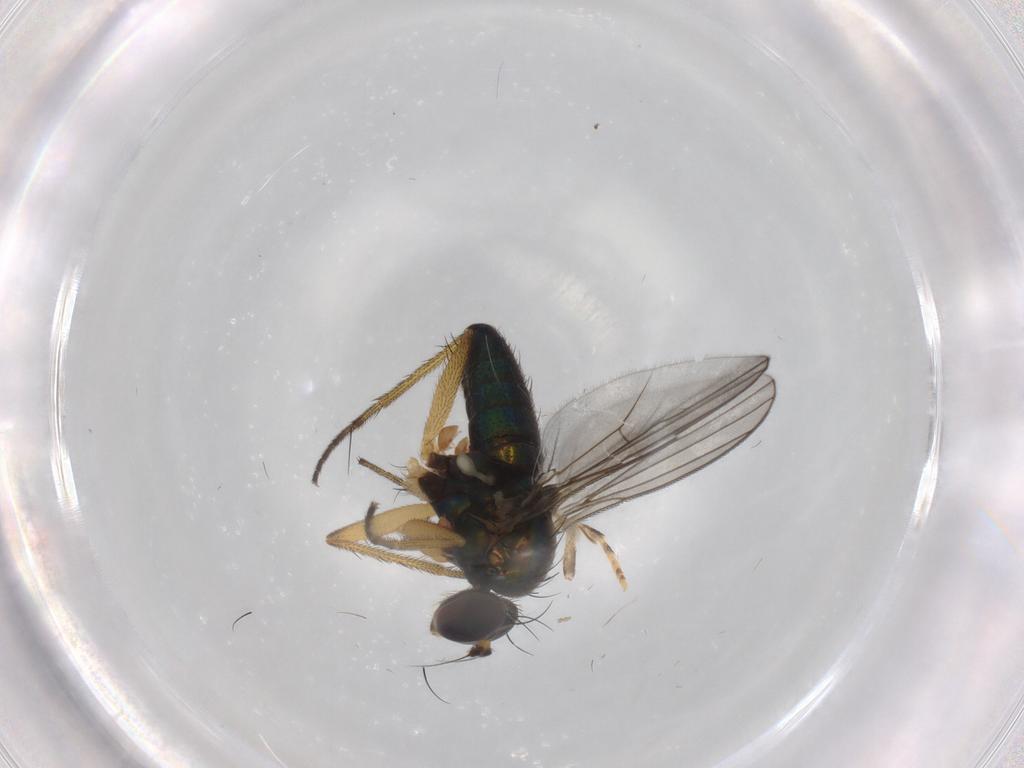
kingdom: Animalia
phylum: Arthropoda
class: Insecta
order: Diptera
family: Dolichopodidae
